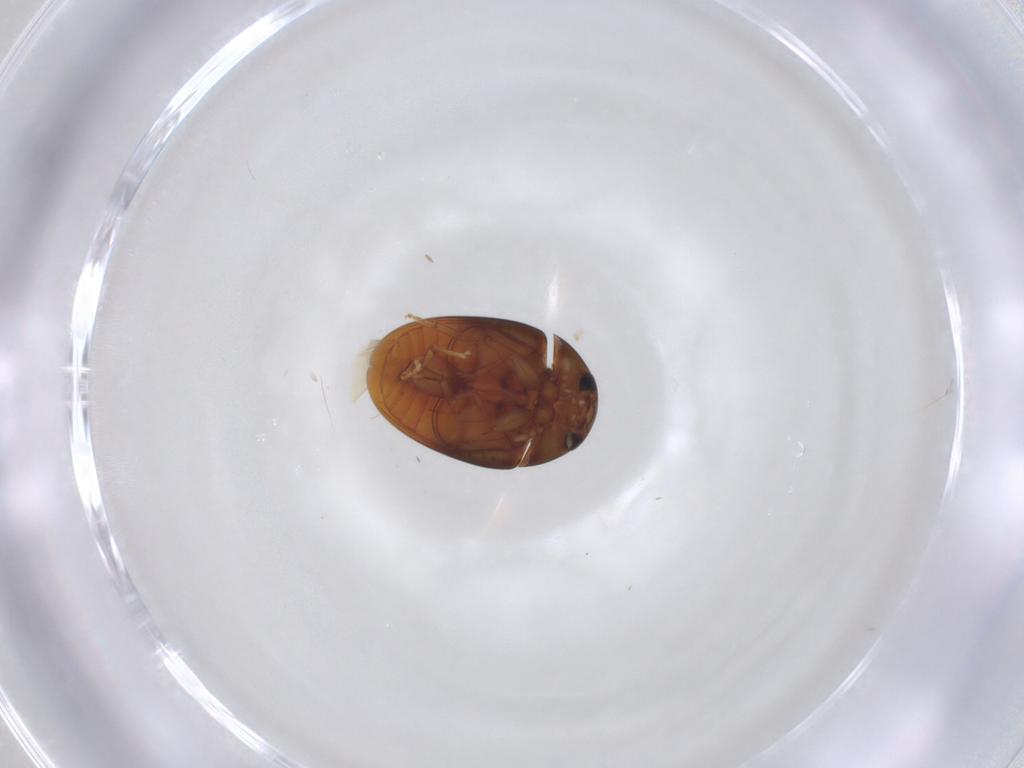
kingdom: Animalia
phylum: Arthropoda
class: Insecta
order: Coleoptera
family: Phalacridae
